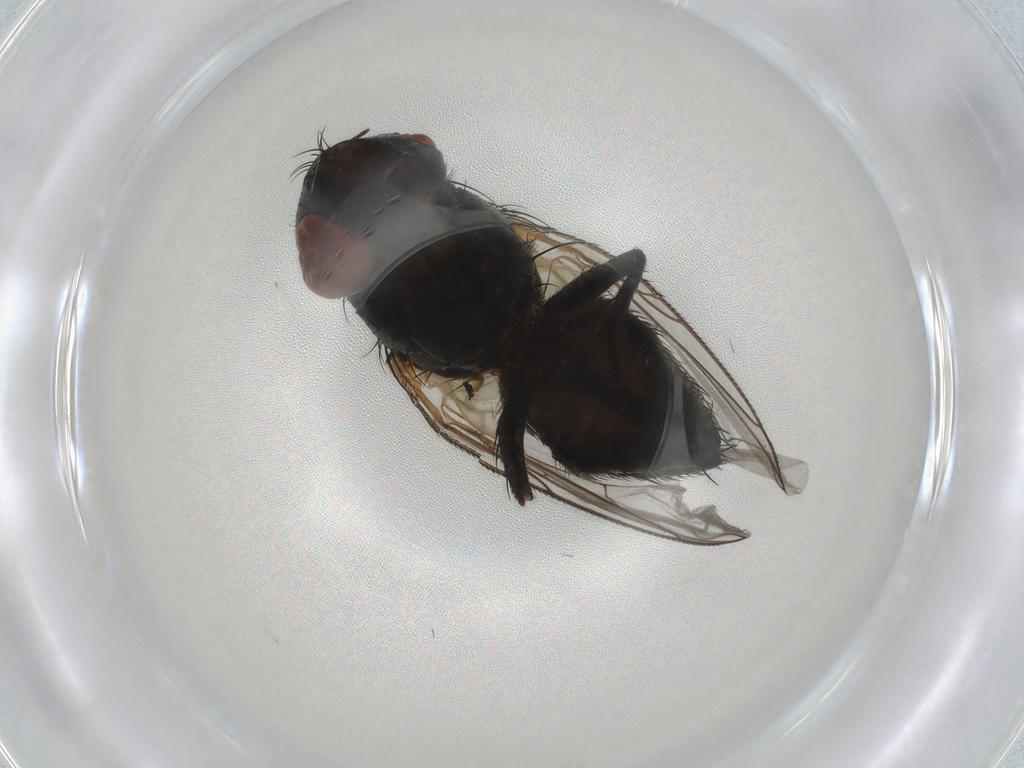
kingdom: Animalia
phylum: Arthropoda
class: Insecta
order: Diptera
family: Sarcophagidae
